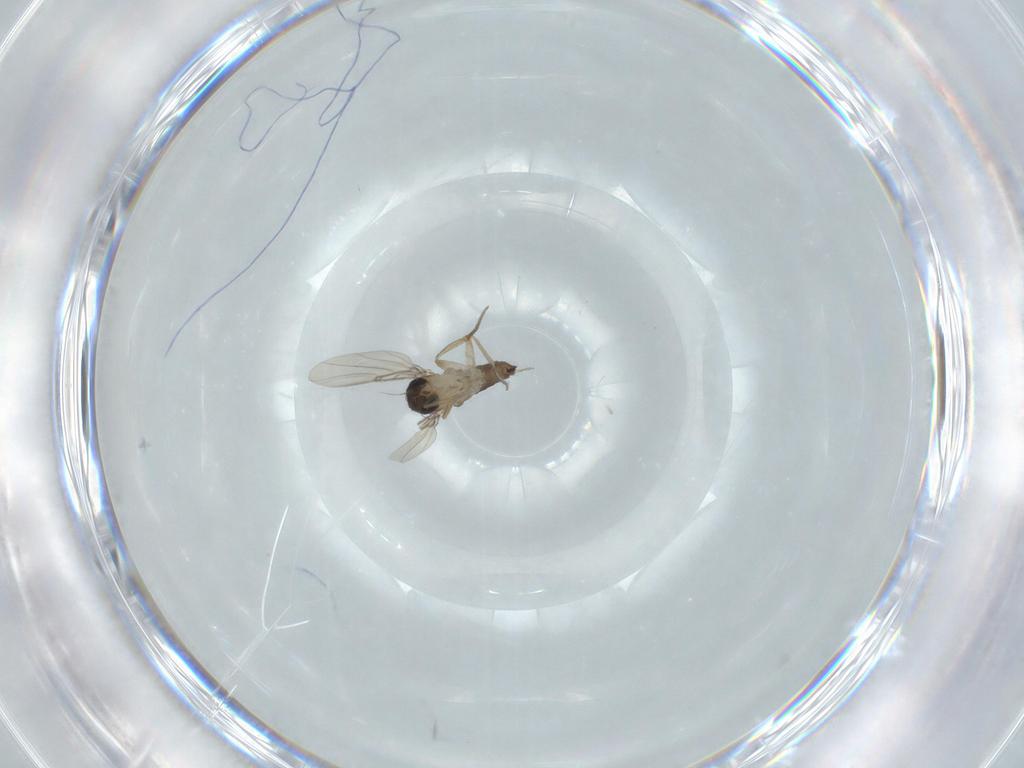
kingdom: Animalia
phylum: Arthropoda
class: Insecta
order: Diptera
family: Phoridae
